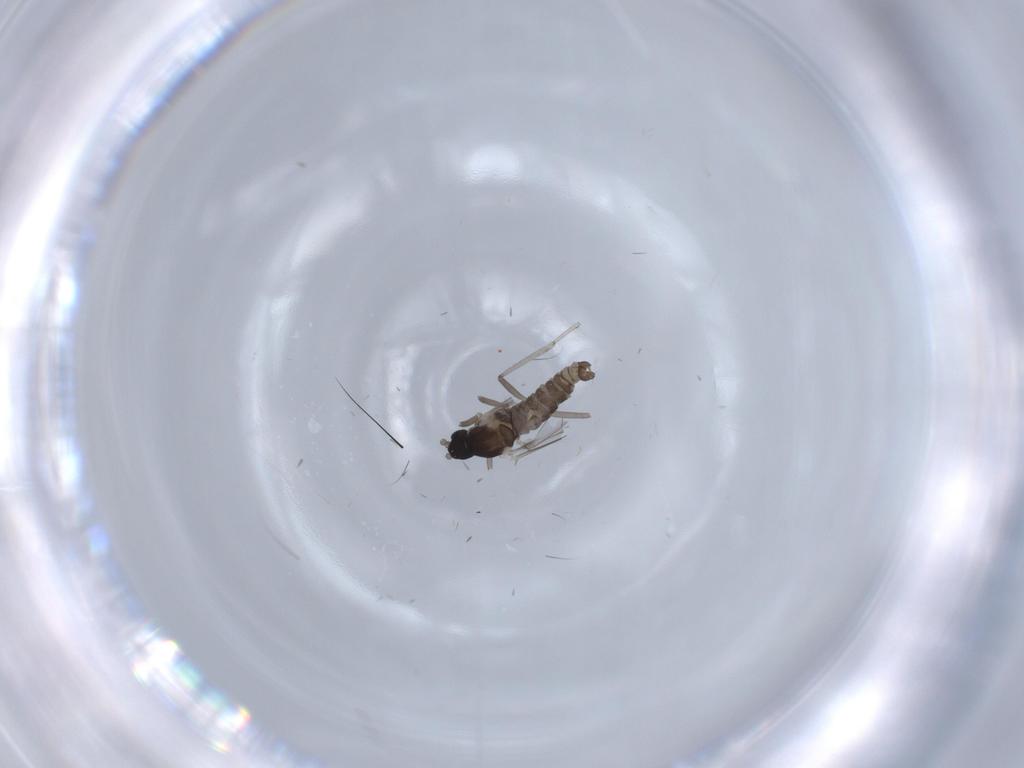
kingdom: Animalia
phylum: Arthropoda
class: Insecta
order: Diptera
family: Cecidomyiidae
